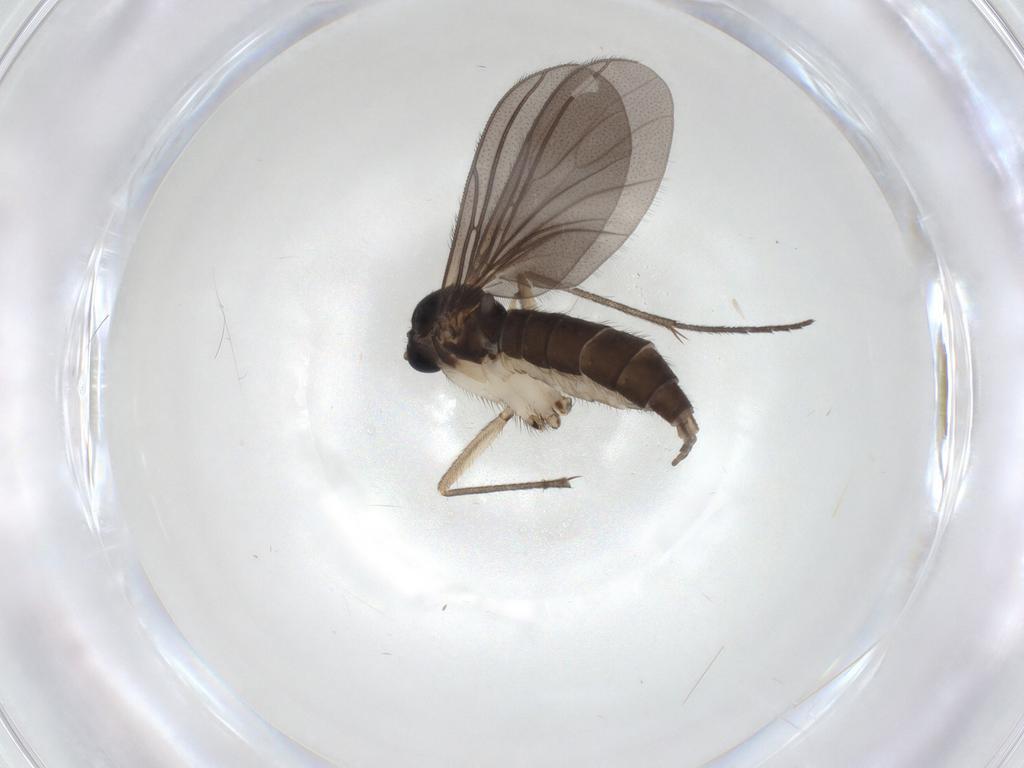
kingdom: Animalia
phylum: Arthropoda
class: Insecta
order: Diptera
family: Sciaridae
